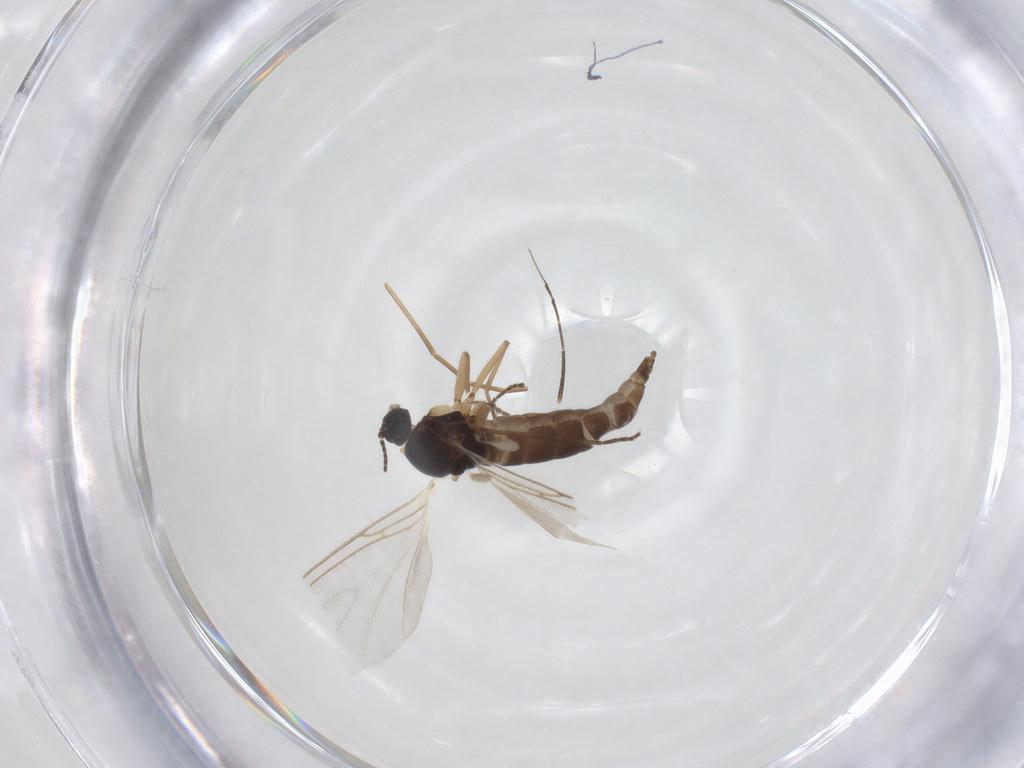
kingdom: Animalia
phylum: Arthropoda
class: Insecta
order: Diptera
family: Sciaridae
